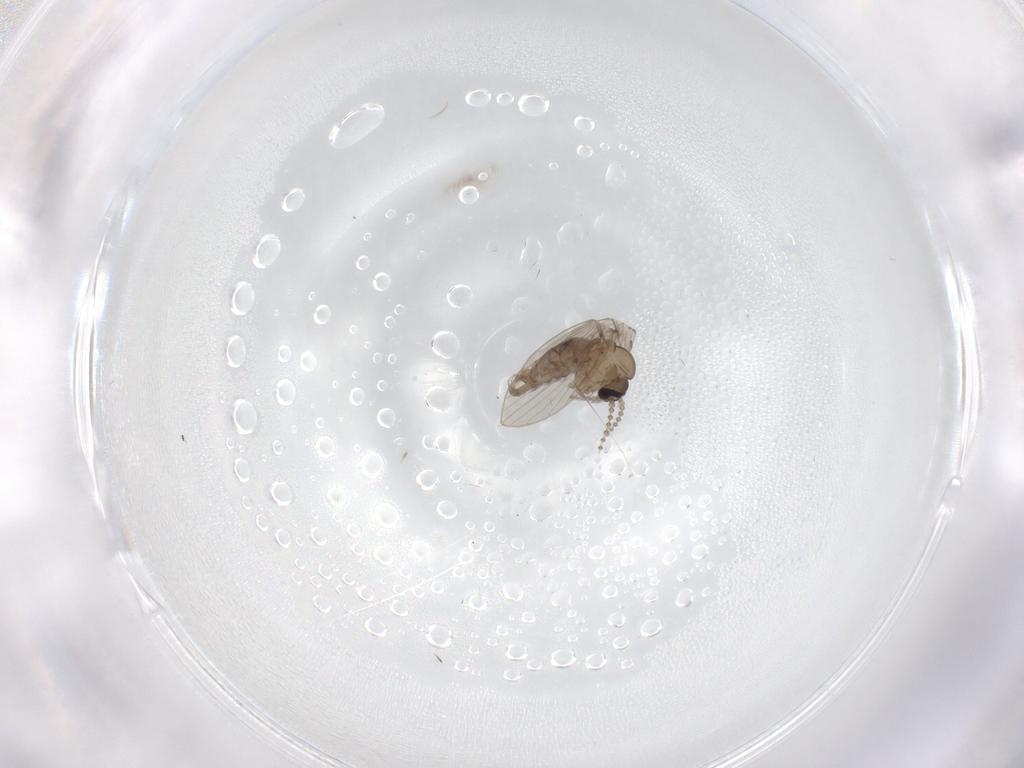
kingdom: Animalia
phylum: Arthropoda
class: Insecta
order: Diptera
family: Psychodidae
